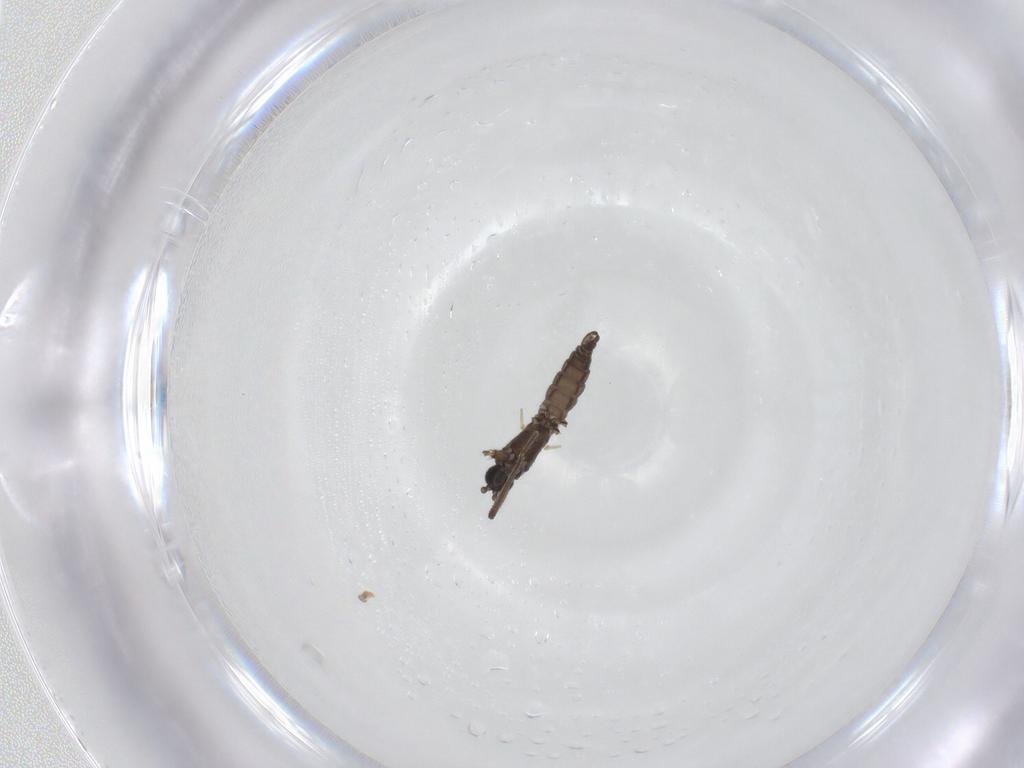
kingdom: Animalia
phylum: Arthropoda
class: Insecta
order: Diptera
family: Sciaridae
